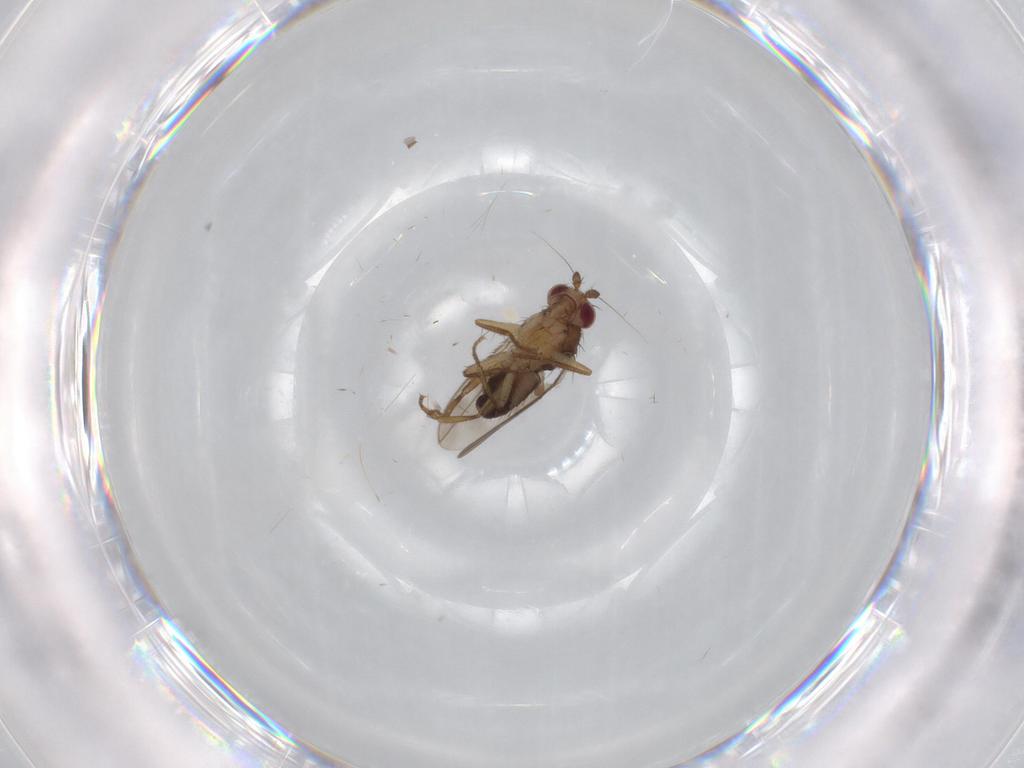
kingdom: Animalia
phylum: Arthropoda
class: Insecta
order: Diptera
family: Sphaeroceridae
